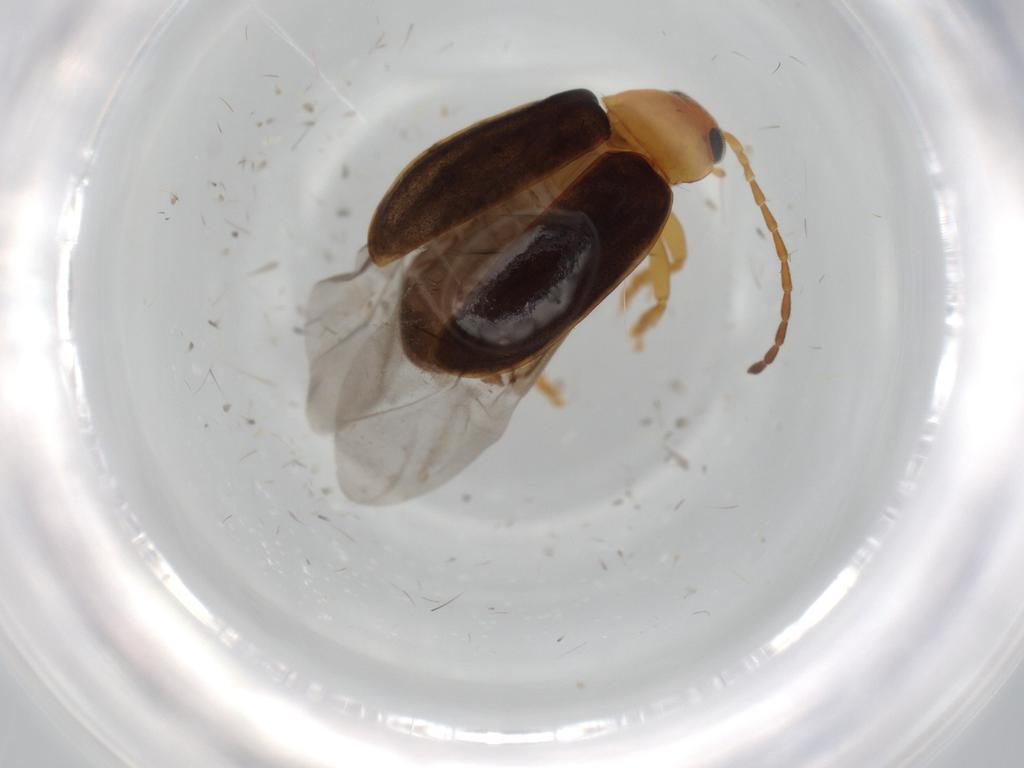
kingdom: Animalia
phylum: Arthropoda
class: Insecta
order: Coleoptera
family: Chrysomelidae
